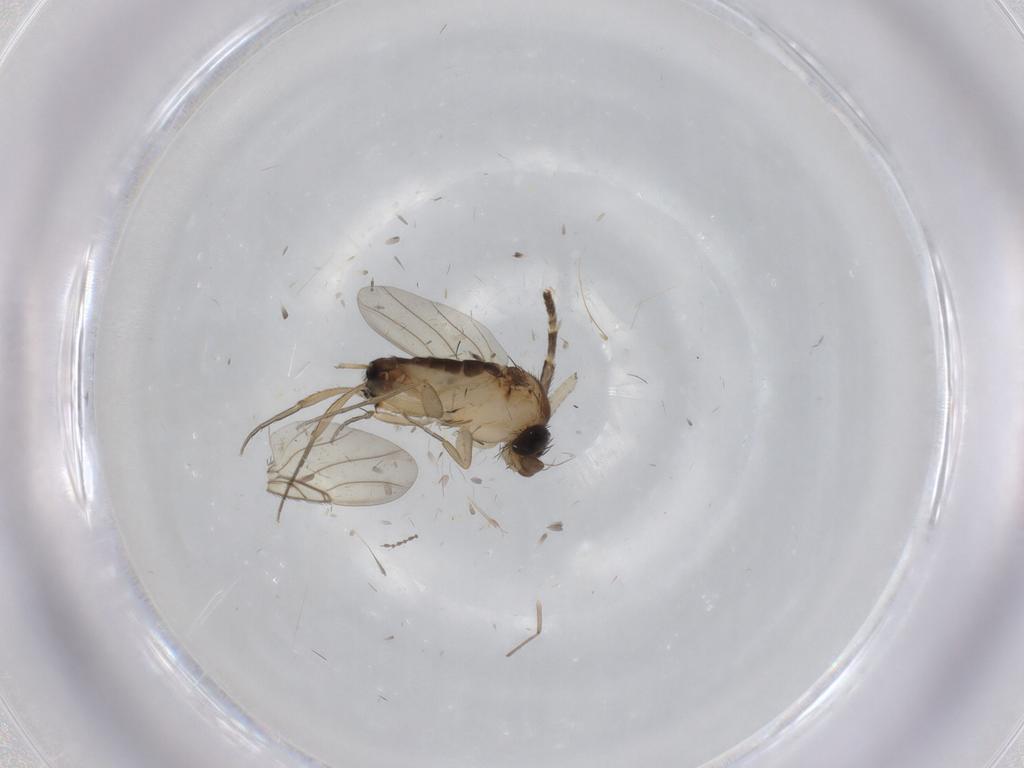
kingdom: Animalia
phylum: Arthropoda
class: Insecta
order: Diptera
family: Phoridae
